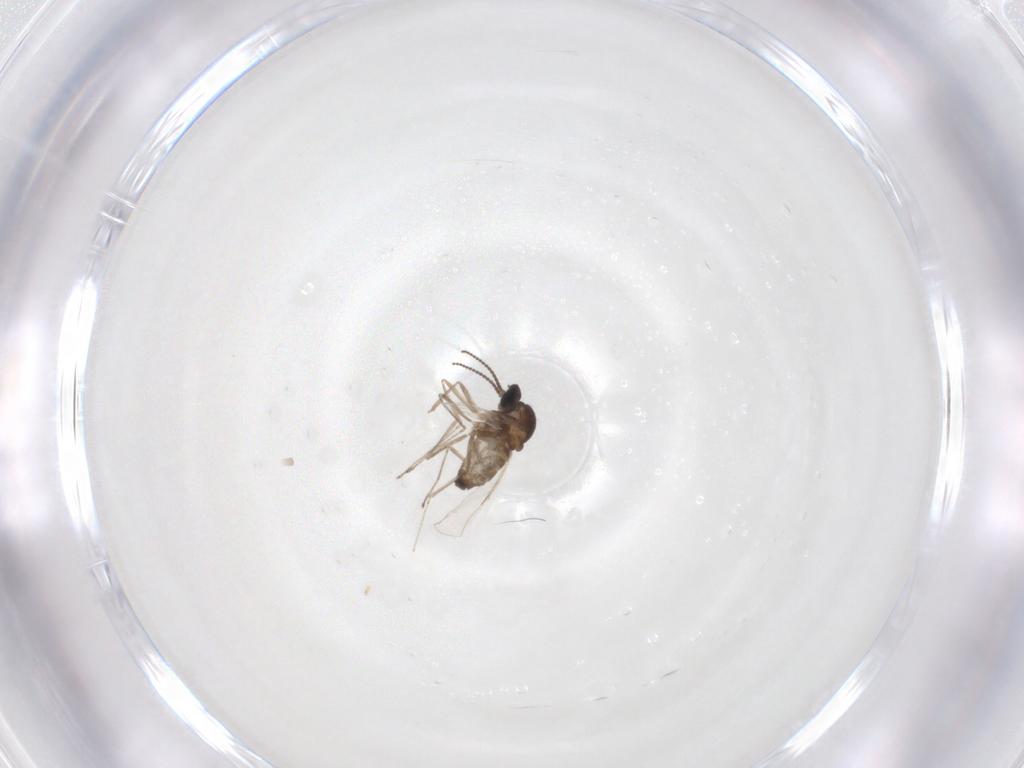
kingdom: Animalia
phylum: Arthropoda
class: Insecta
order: Diptera
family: Cecidomyiidae
